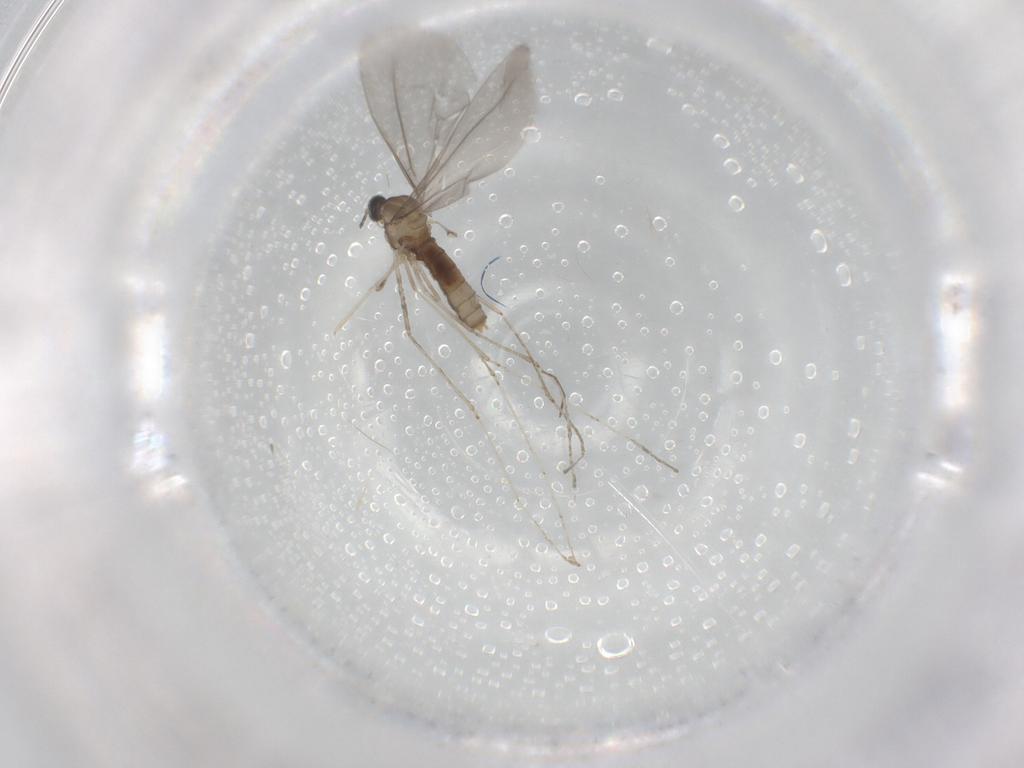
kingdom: Animalia
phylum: Arthropoda
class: Insecta
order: Diptera
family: Cecidomyiidae
